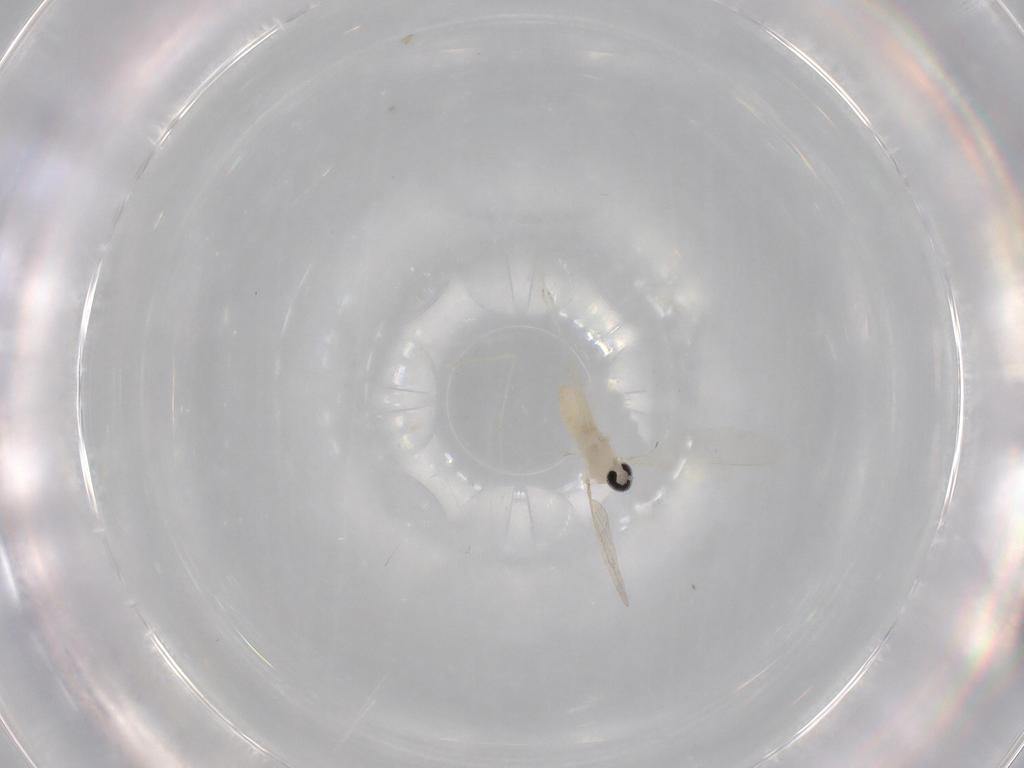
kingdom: Animalia
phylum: Arthropoda
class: Insecta
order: Diptera
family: Cecidomyiidae
